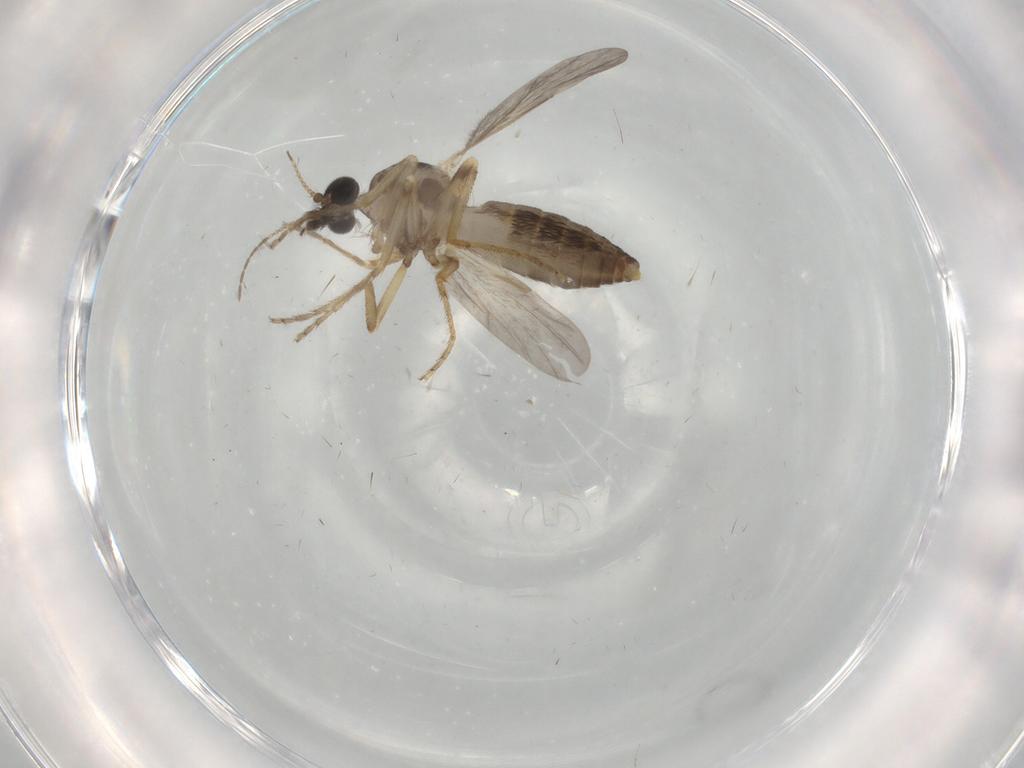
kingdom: Animalia
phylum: Arthropoda
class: Insecta
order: Diptera
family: Ceratopogonidae
